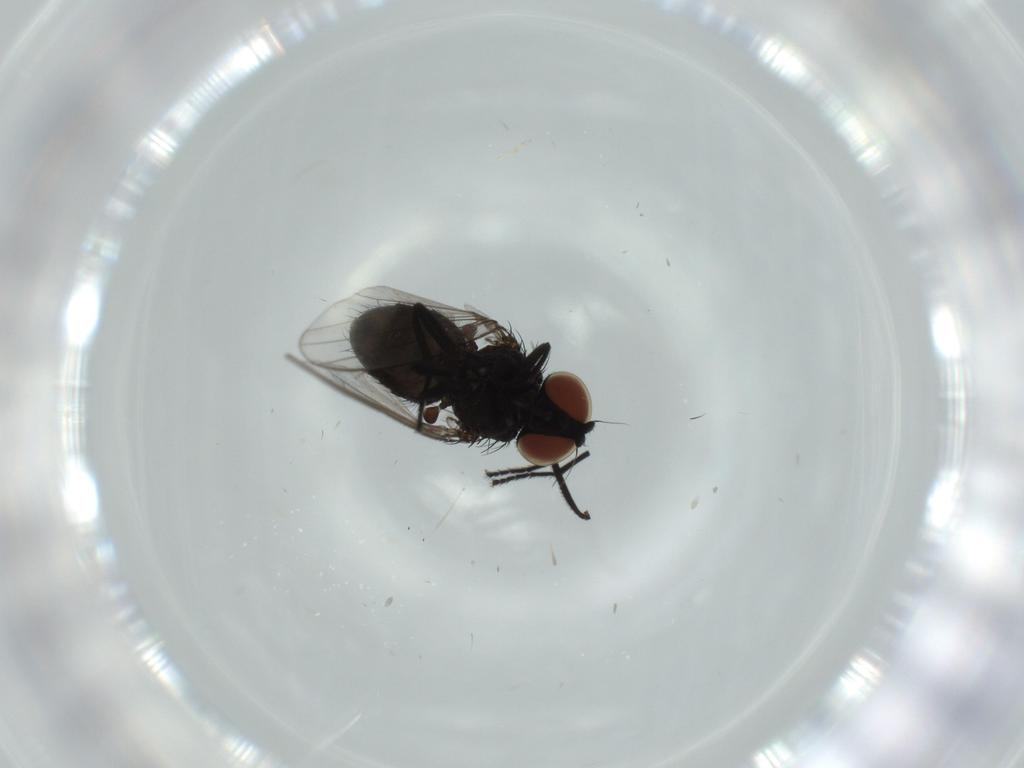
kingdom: Animalia
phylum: Arthropoda
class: Insecta
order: Diptera
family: Milichiidae
